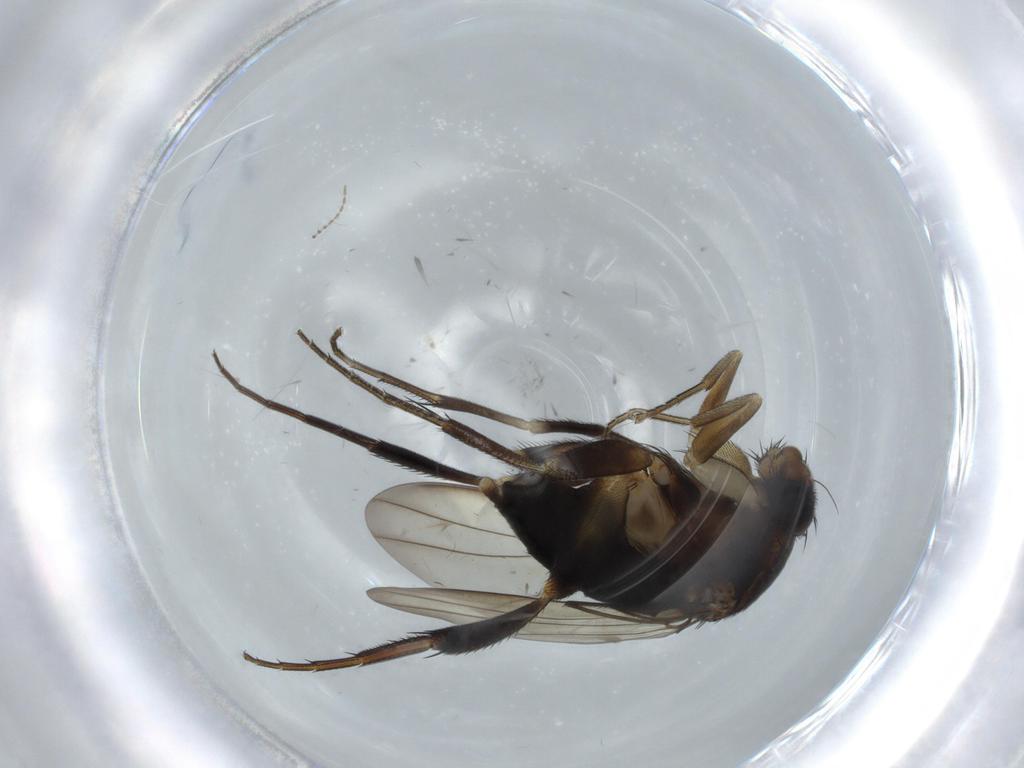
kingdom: Animalia
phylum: Arthropoda
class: Insecta
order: Diptera
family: Phoridae
